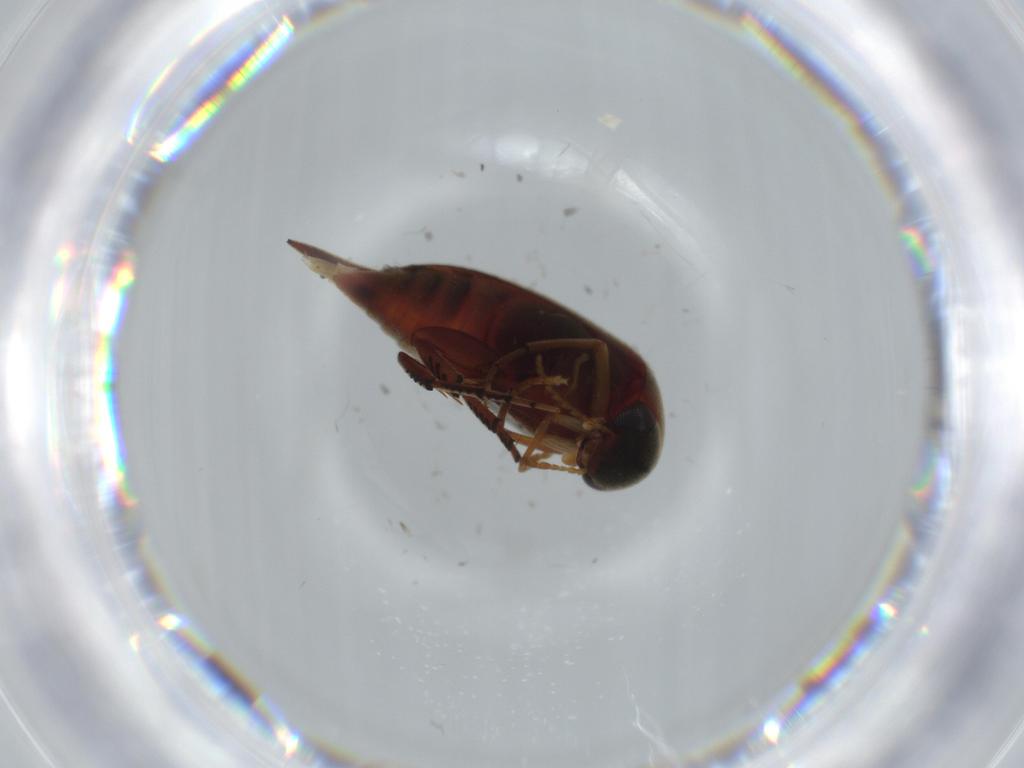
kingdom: Animalia
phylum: Arthropoda
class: Insecta
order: Coleoptera
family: Mordellidae
